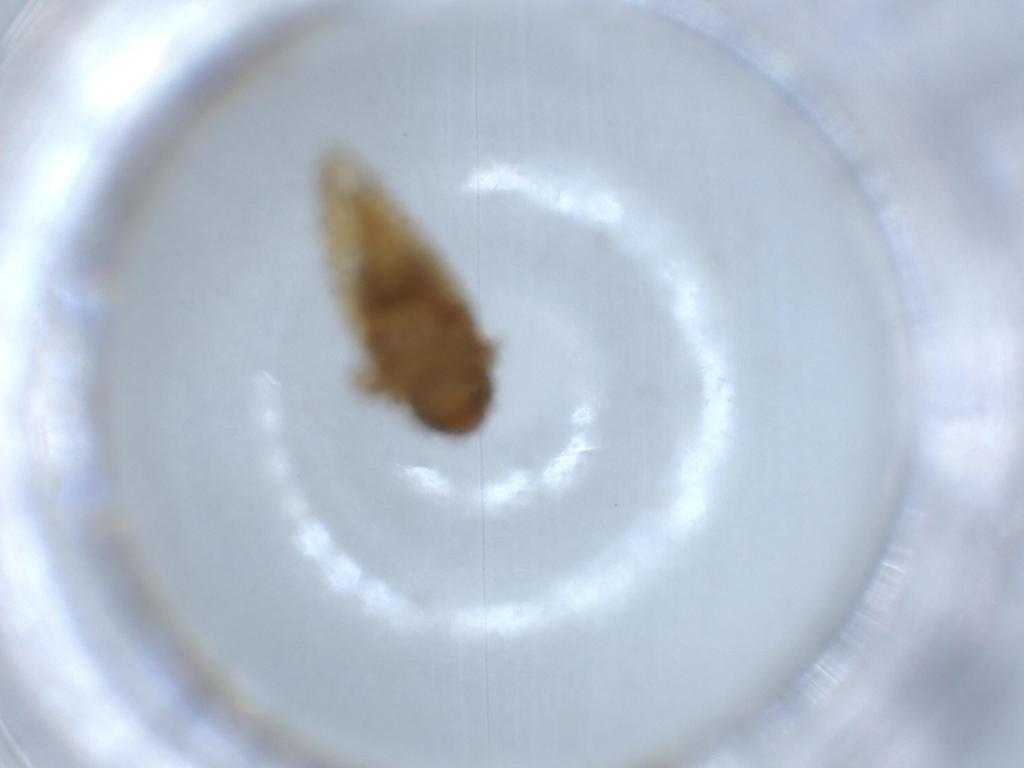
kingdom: Animalia
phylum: Arthropoda
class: Insecta
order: Hemiptera
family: Cicadellidae
